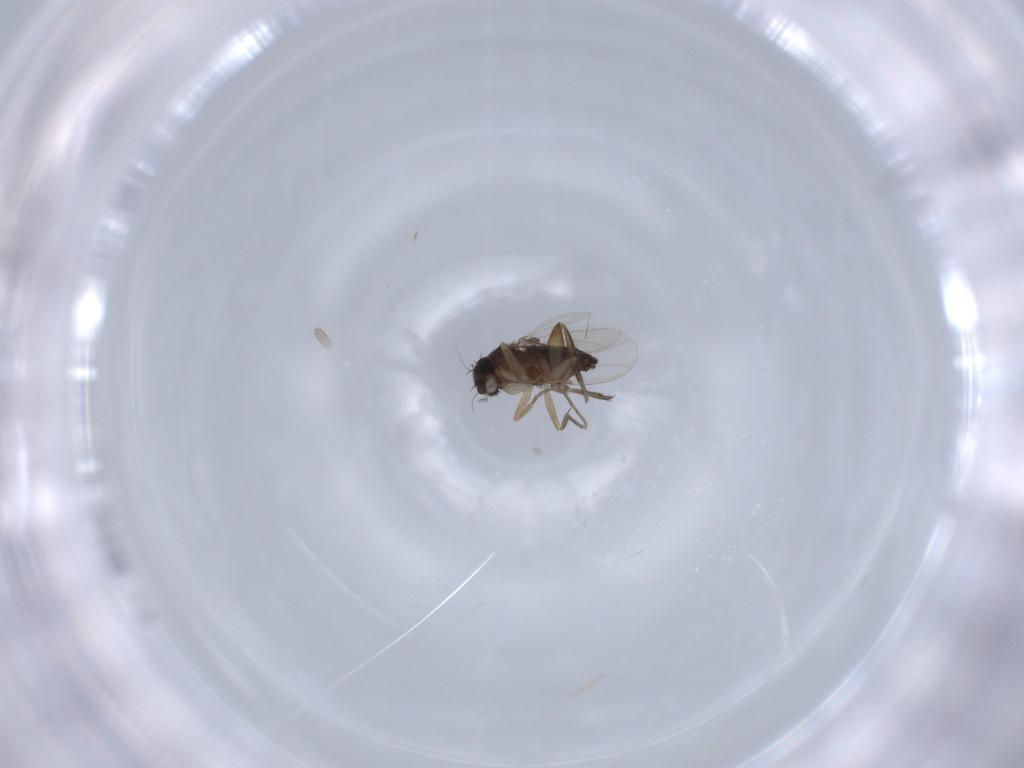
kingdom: Animalia
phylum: Arthropoda
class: Insecta
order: Diptera
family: Phoridae
